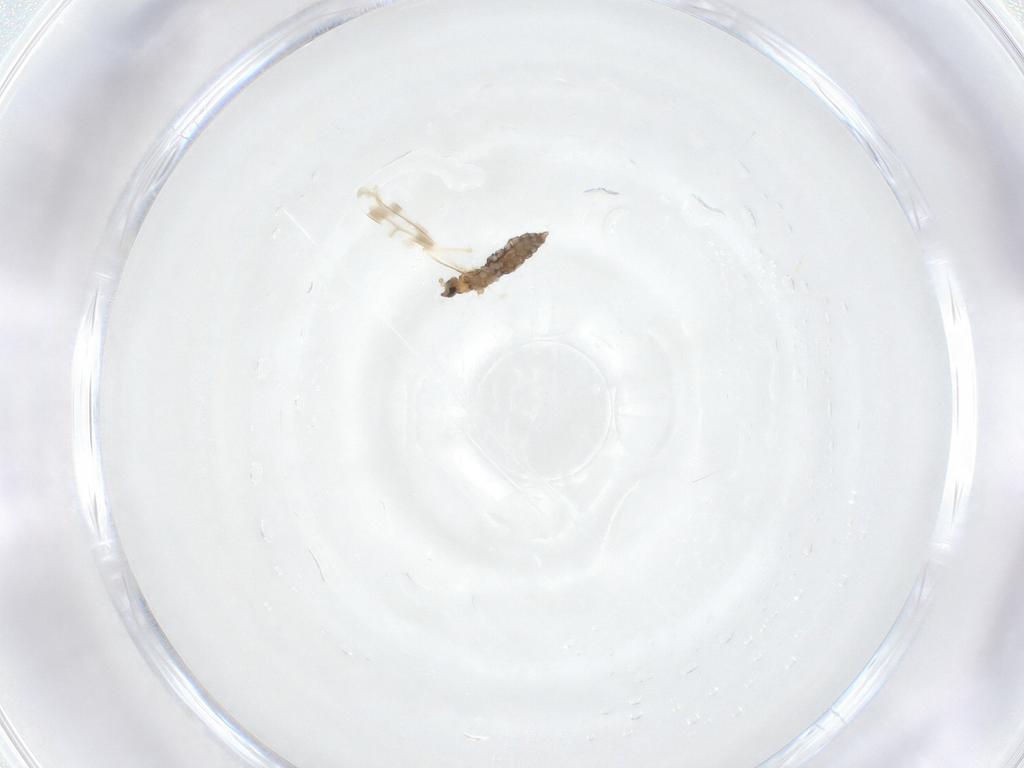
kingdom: Animalia
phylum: Arthropoda
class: Insecta
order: Diptera
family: Cecidomyiidae
